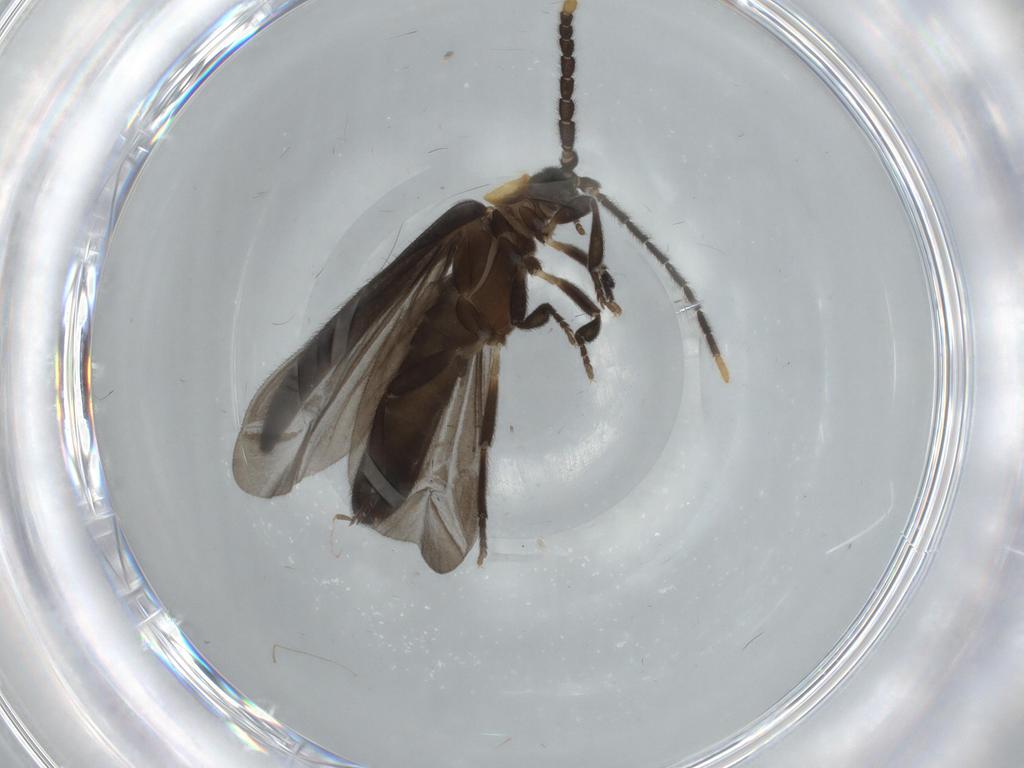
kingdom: Animalia
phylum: Arthropoda
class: Insecta
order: Coleoptera
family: Lycidae
